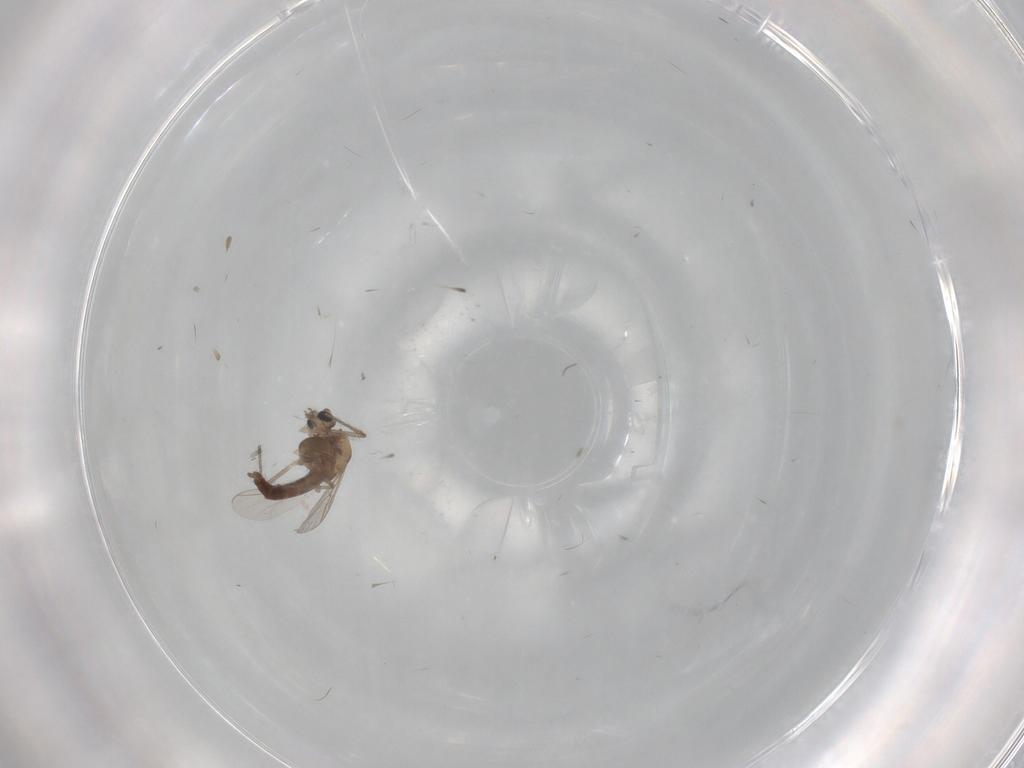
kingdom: Animalia
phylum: Arthropoda
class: Insecta
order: Diptera
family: Chironomidae
